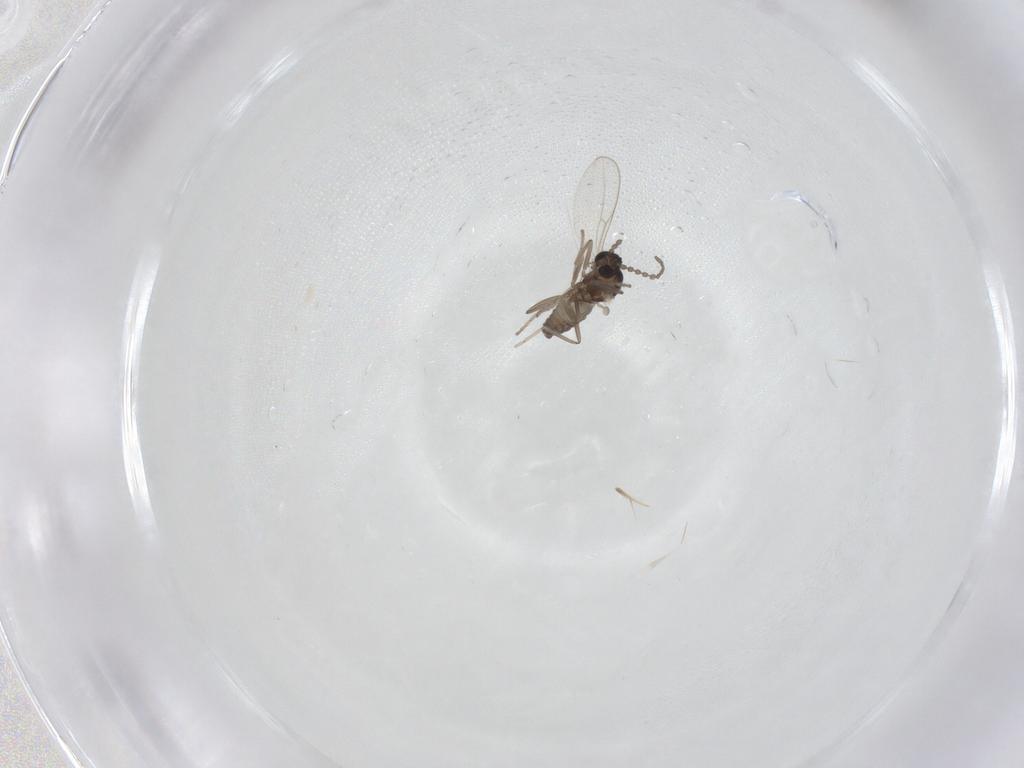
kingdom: Animalia
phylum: Arthropoda
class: Insecta
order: Diptera
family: Cecidomyiidae
